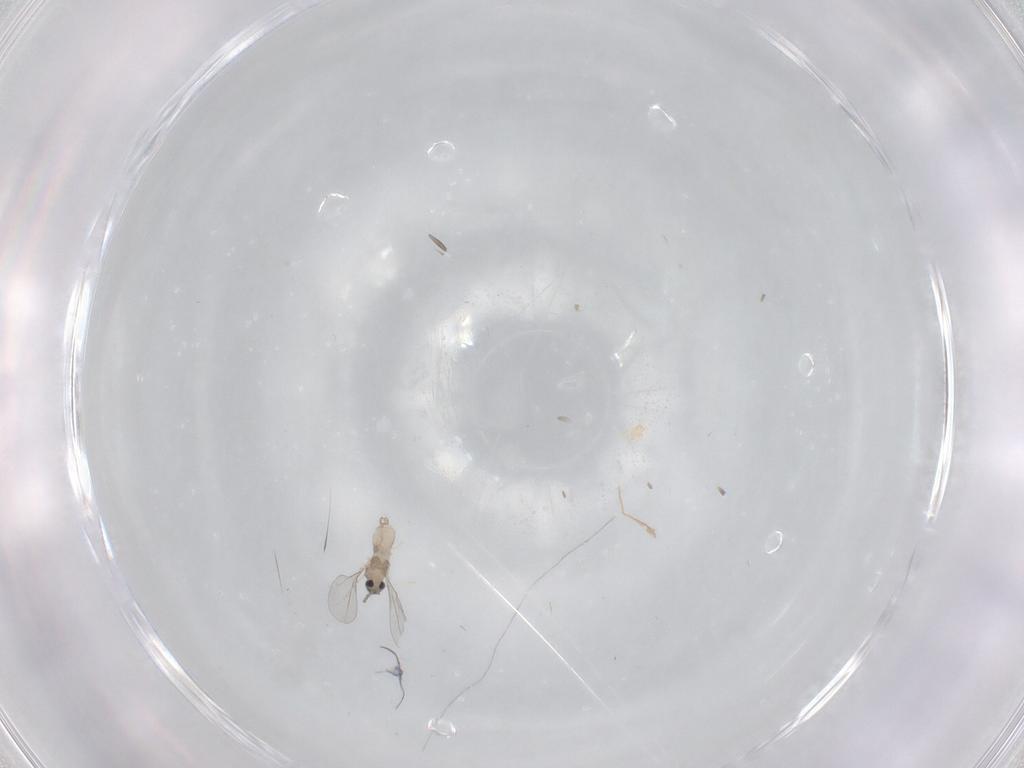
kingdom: Animalia
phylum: Arthropoda
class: Insecta
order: Diptera
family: Cecidomyiidae
